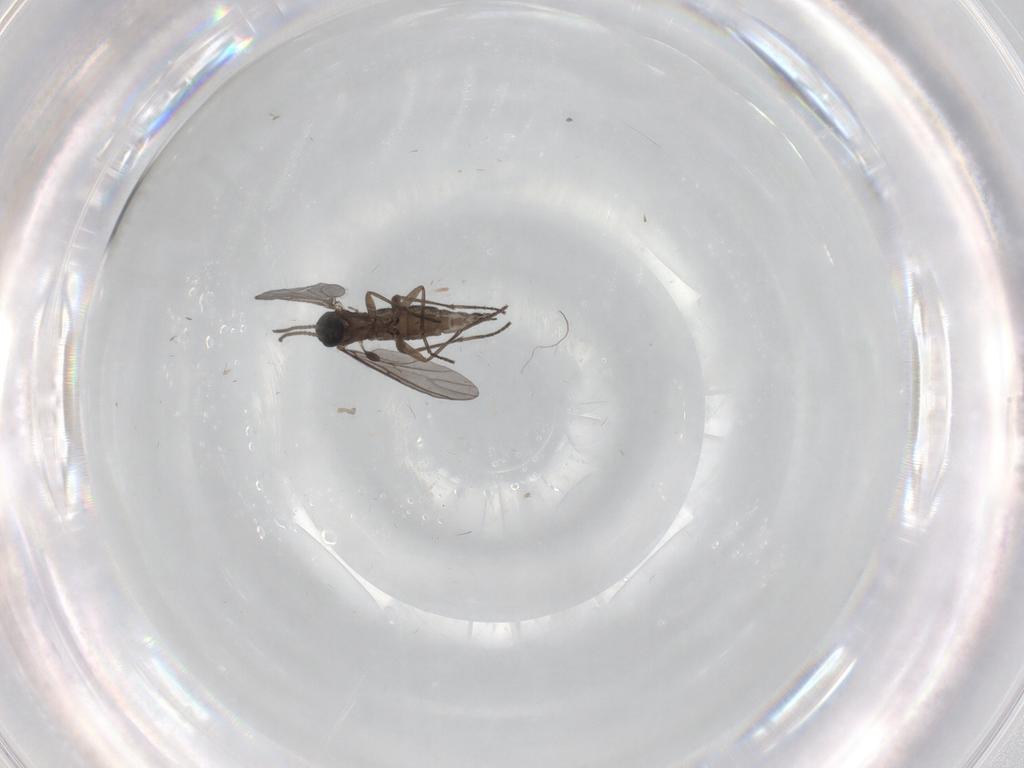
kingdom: Animalia
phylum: Arthropoda
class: Insecta
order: Diptera
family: Sciaridae
